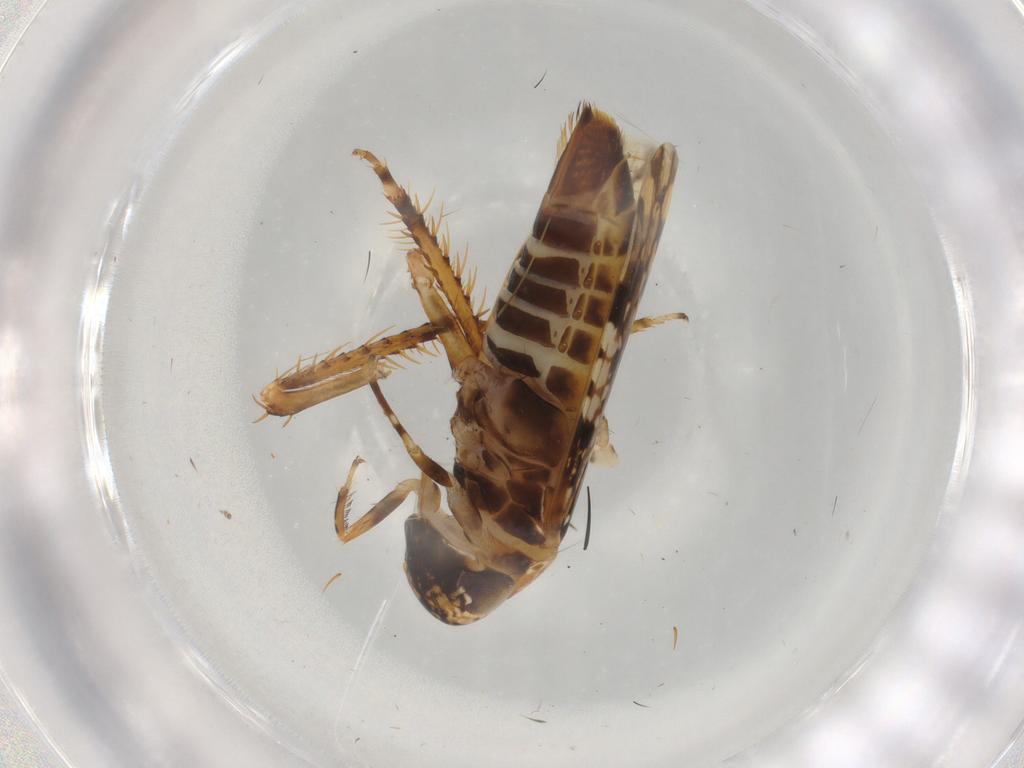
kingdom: Animalia
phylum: Arthropoda
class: Insecta
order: Hemiptera
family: Cicadellidae
